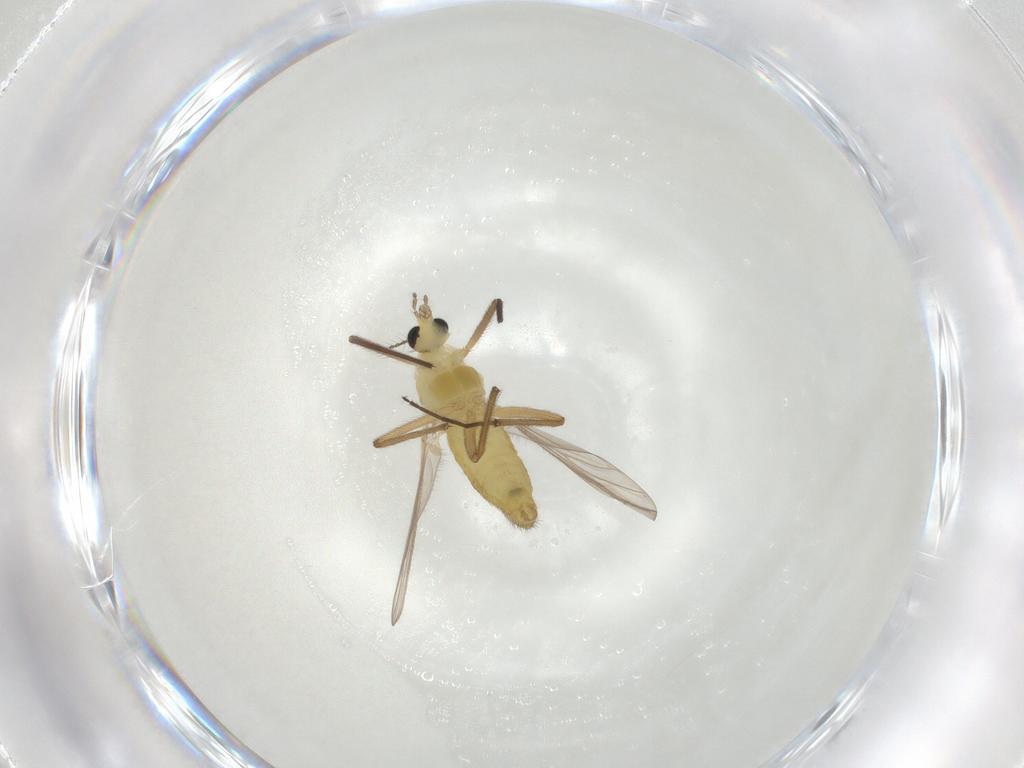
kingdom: Animalia
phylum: Arthropoda
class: Insecta
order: Diptera
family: Chironomidae
